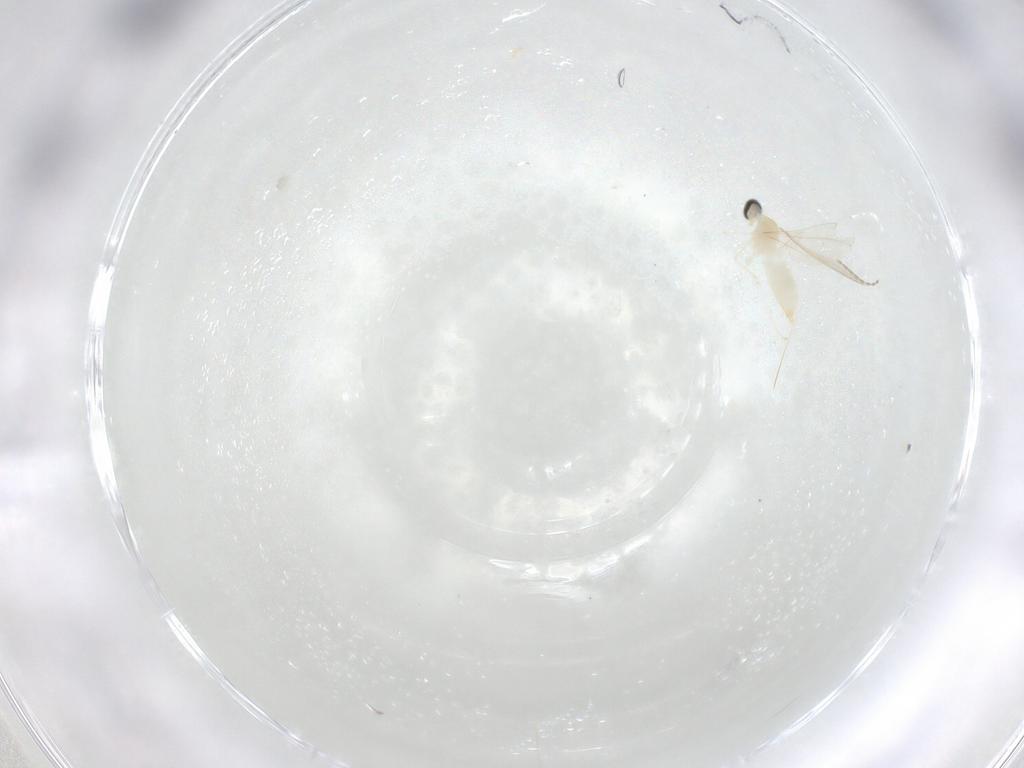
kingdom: Animalia
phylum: Arthropoda
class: Insecta
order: Diptera
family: Cecidomyiidae
